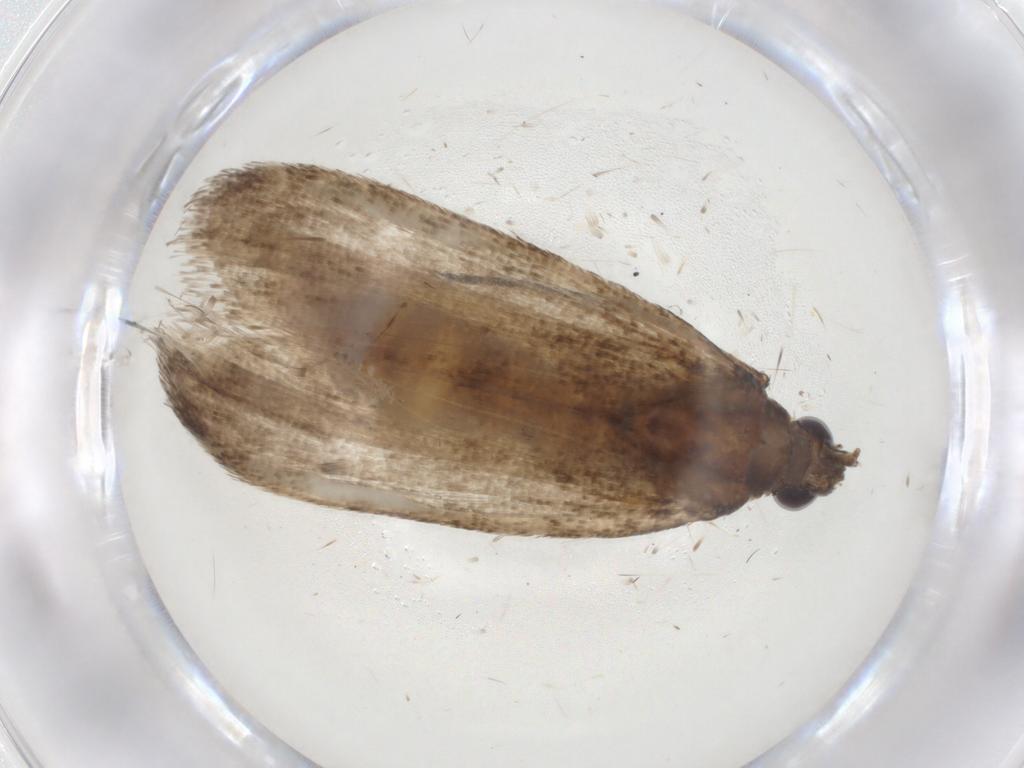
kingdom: Animalia
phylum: Arthropoda
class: Insecta
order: Lepidoptera
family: Pyralidae
